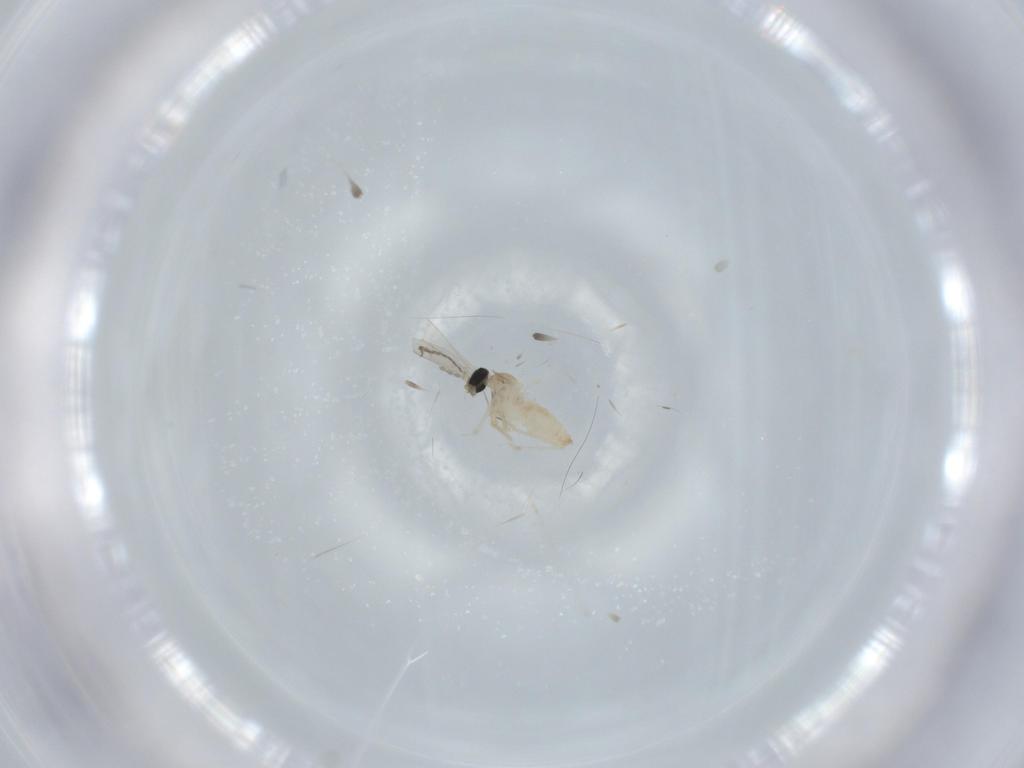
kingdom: Animalia
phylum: Arthropoda
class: Insecta
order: Diptera
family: Cecidomyiidae
